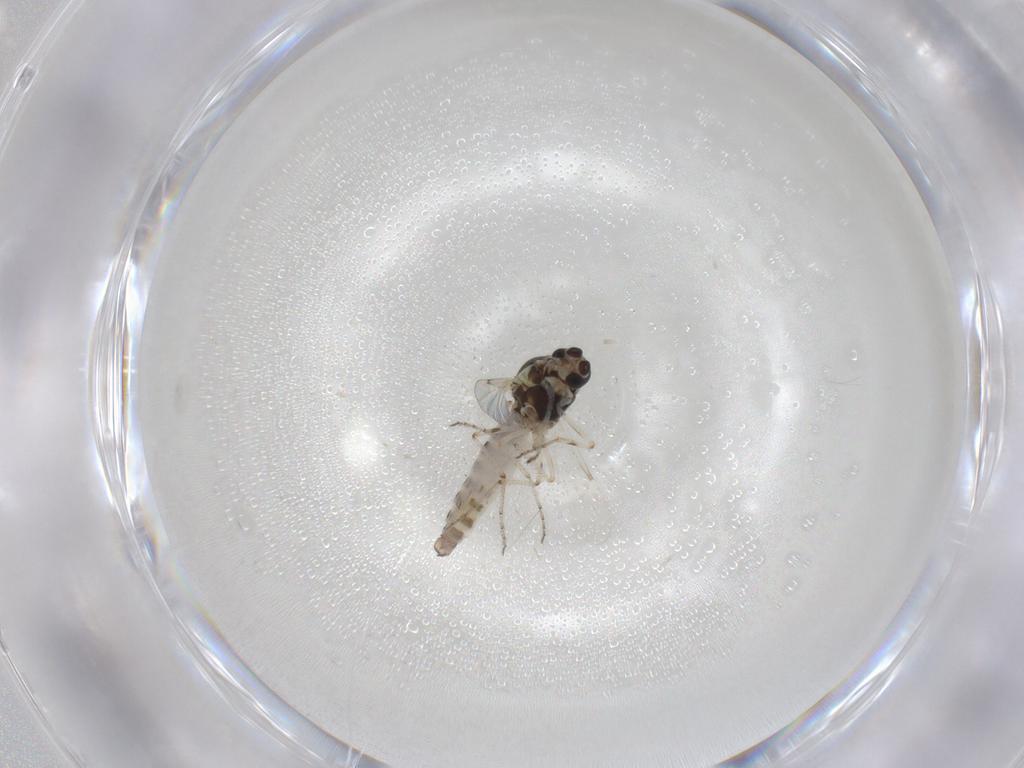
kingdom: Animalia
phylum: Arthropoda
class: Insecta
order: Diptera
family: Ceratopogonidae
